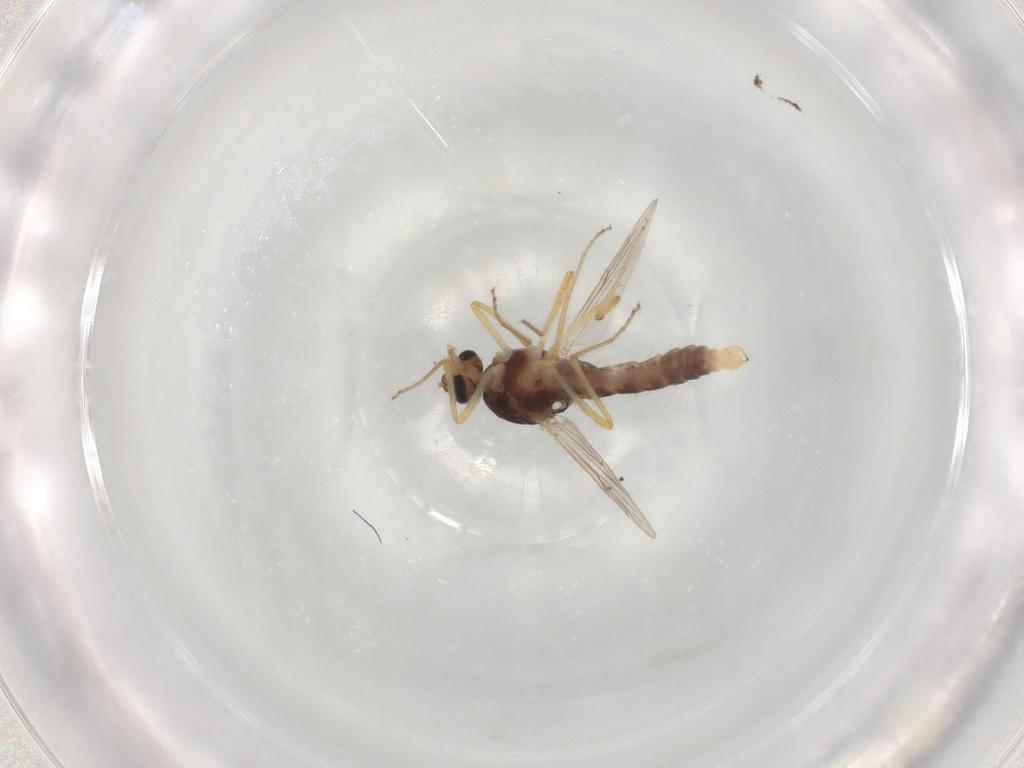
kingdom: Animalia
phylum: Arthropoda
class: Insecta
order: Diptera
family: Ceratopogonidae
